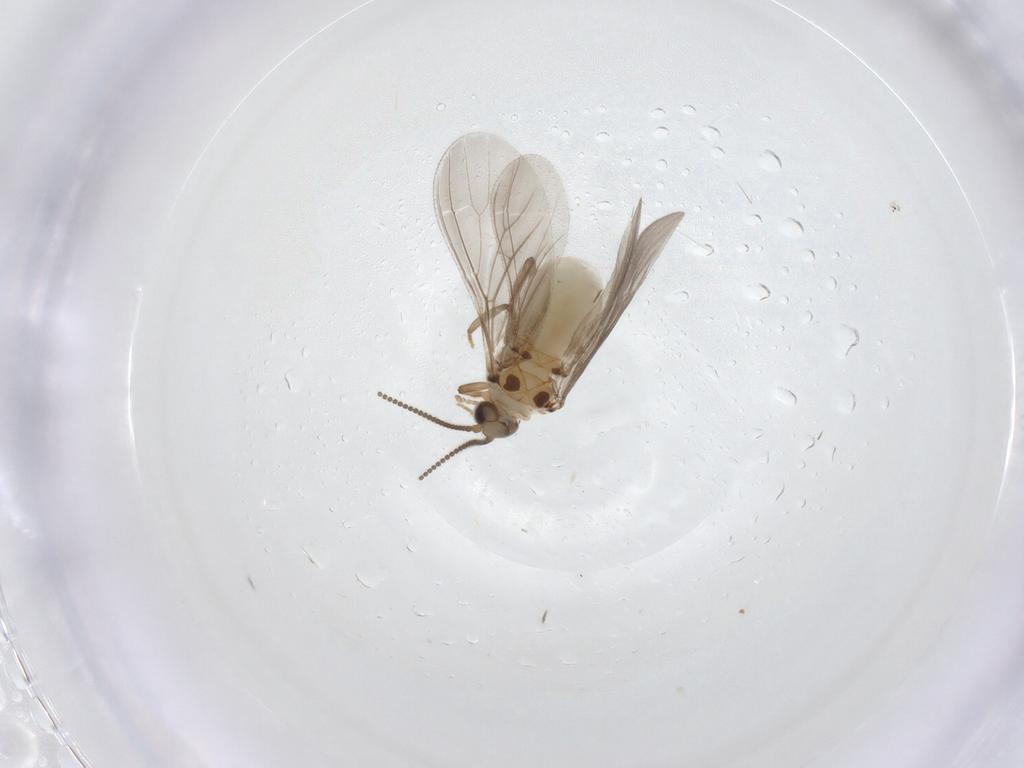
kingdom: Animalia
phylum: Arthropoda
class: Insecta
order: Neuroptera
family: Coniopterygidae
